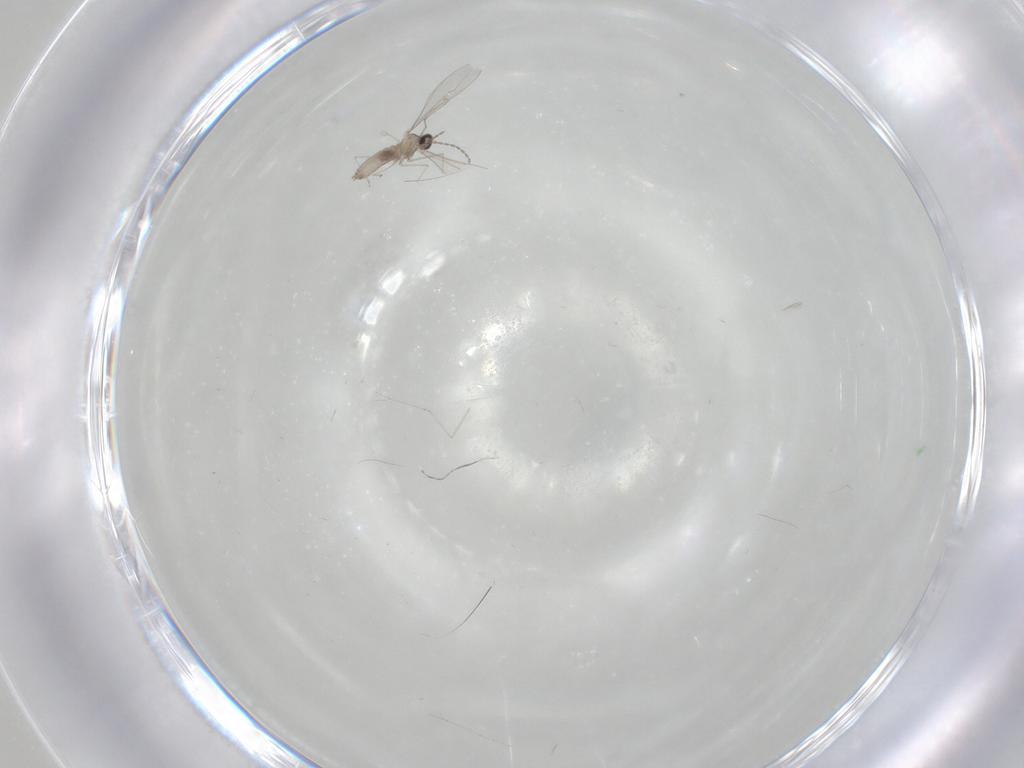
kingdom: Animalia
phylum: Arthropoda
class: Insecta
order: Diptera
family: Cecidomyiidae
